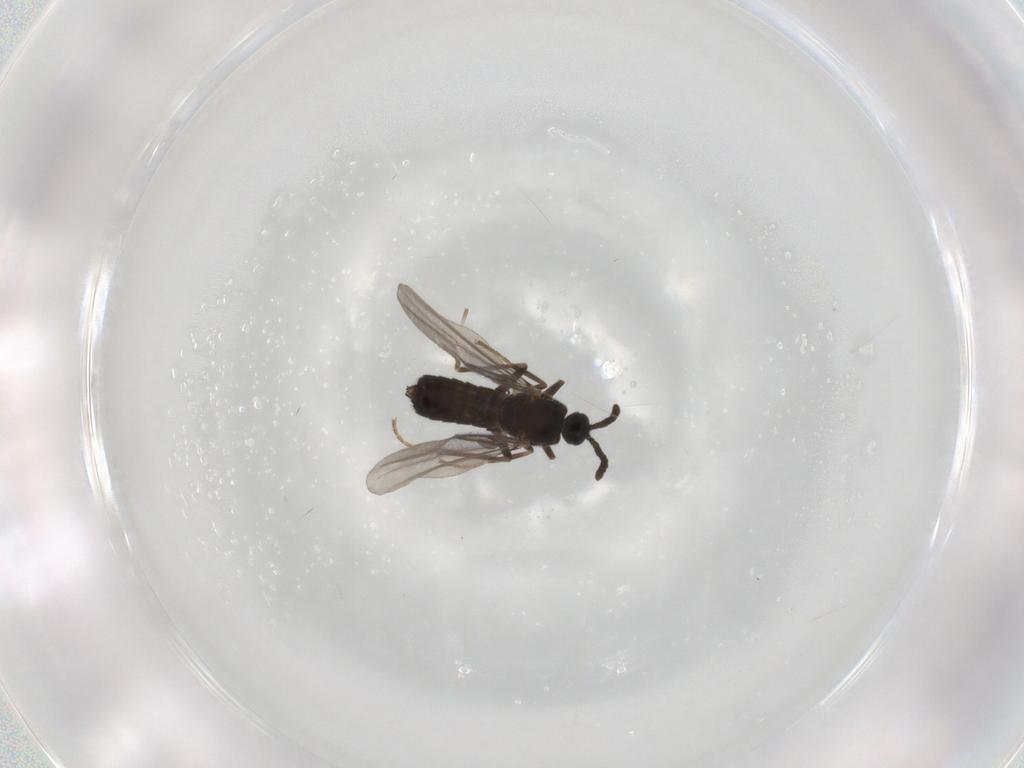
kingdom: Animalia
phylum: Arthropoda
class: Insecta
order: Diptera
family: Scatopsidae
